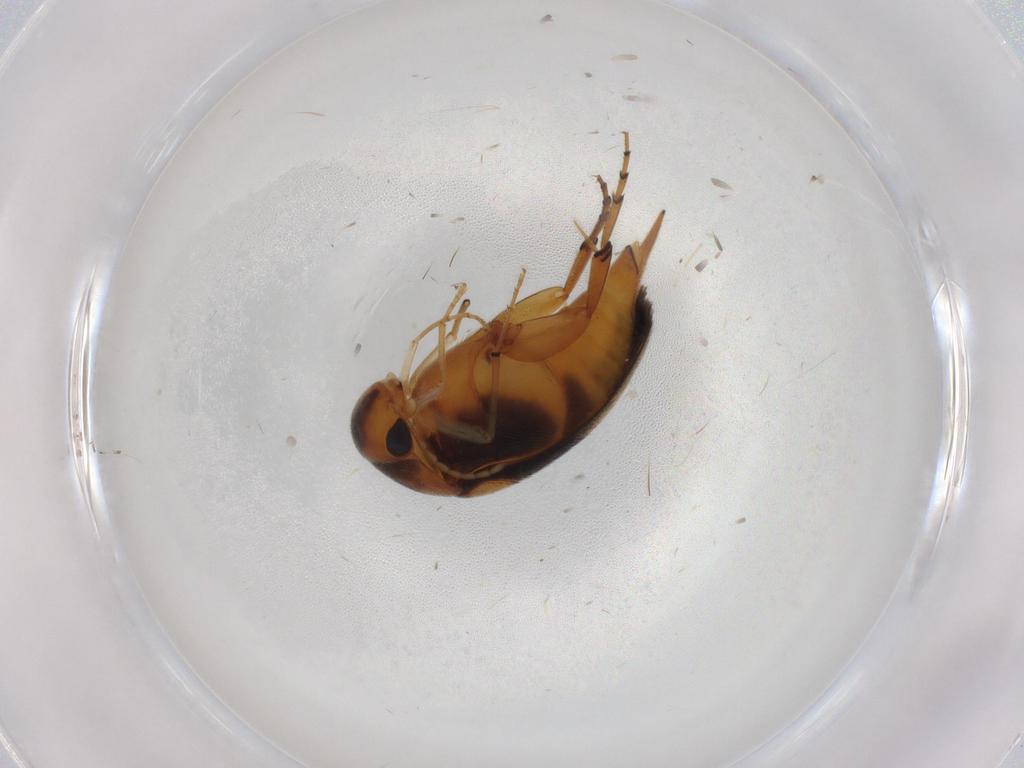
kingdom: Animalia
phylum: Arthropoda
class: Insecta
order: Coleoptera
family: Mordellidae
